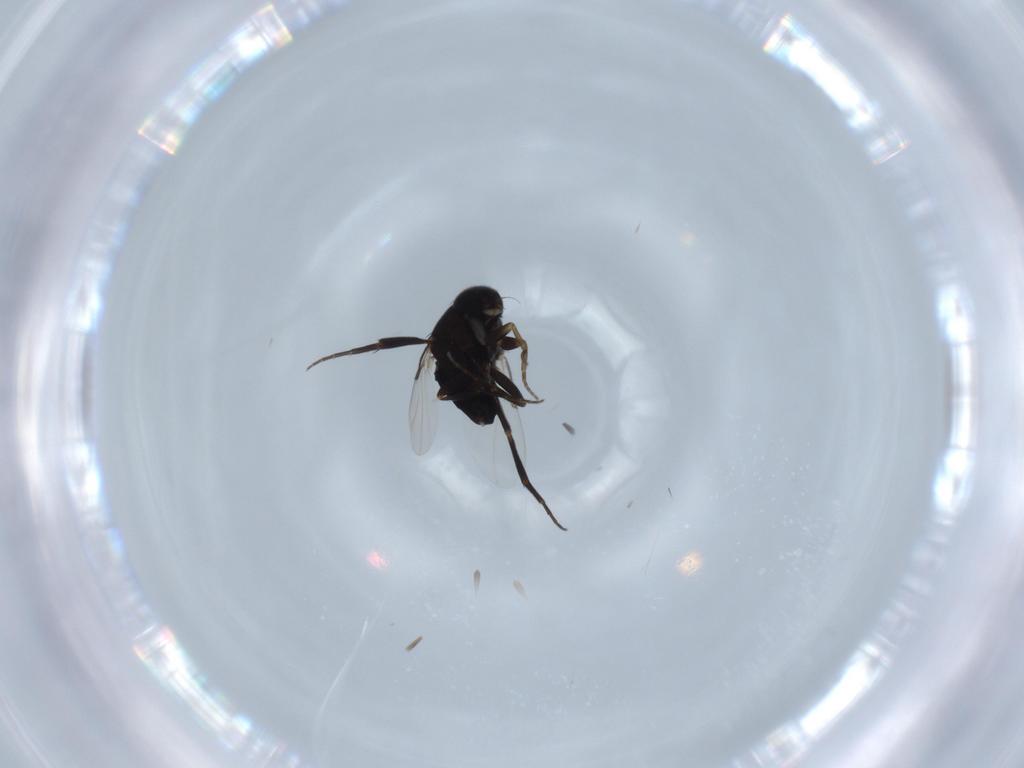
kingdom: Animalia
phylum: Arthropoda
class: Insecta
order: Diptera
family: Phoridae
